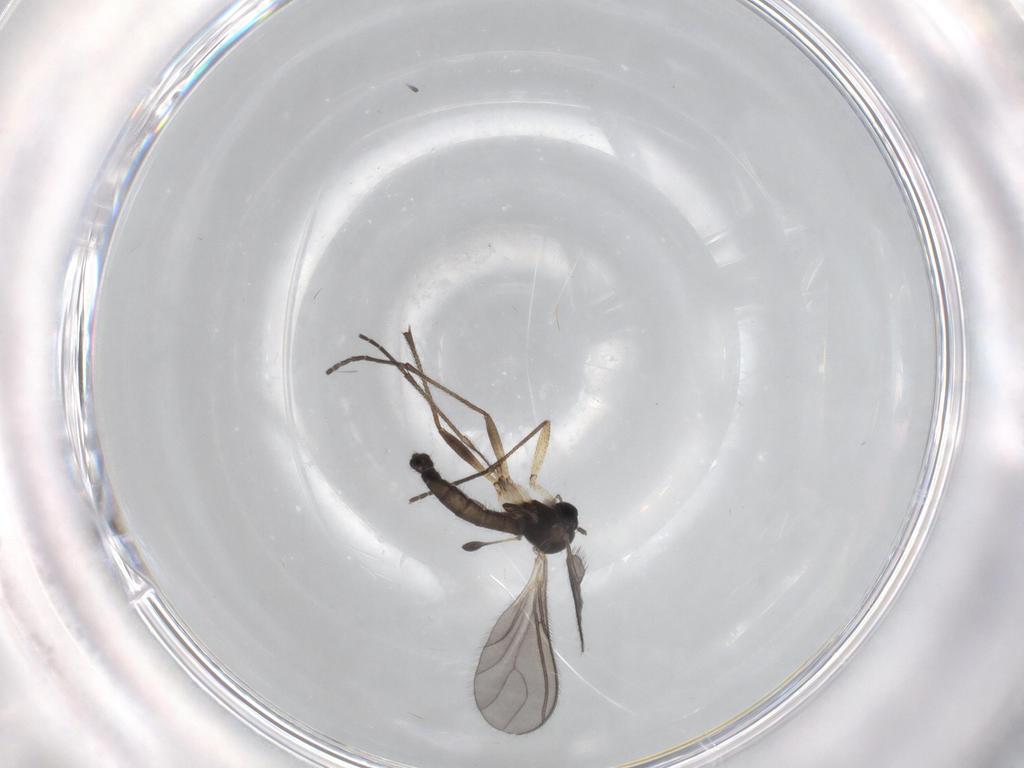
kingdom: Animalia
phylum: Arthropoda
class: Insecta
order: Diptera
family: Sciaridae
